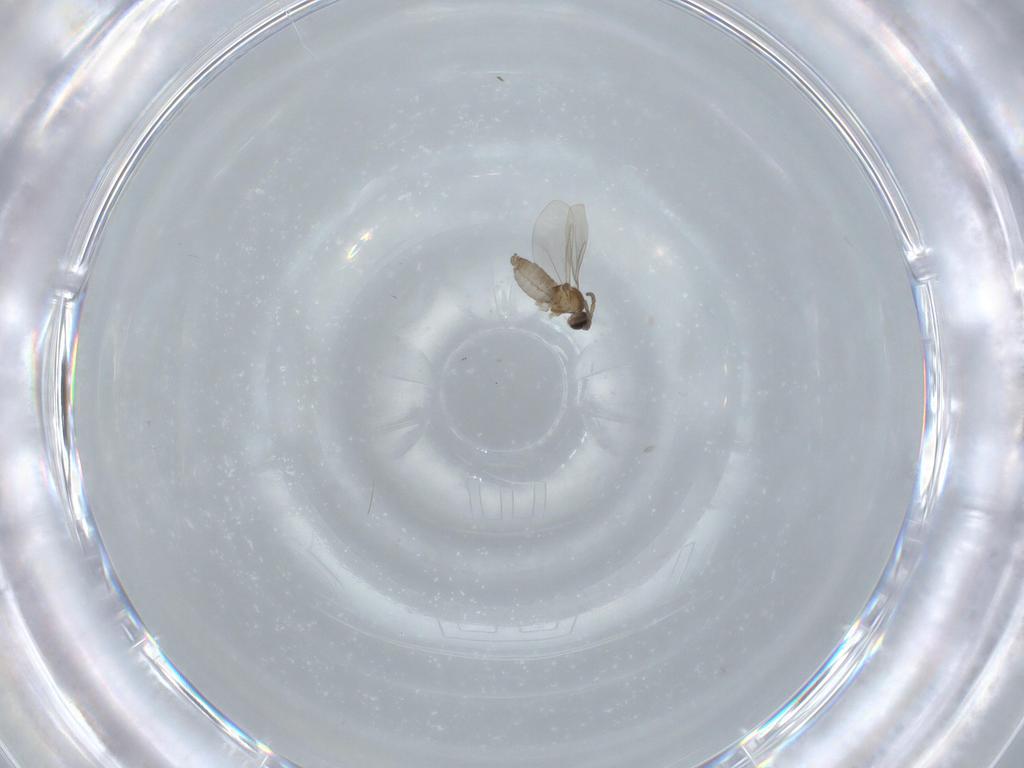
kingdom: Animalia
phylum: Arthropoda
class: Insecta
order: Diptera
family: Cecidomyiidae
